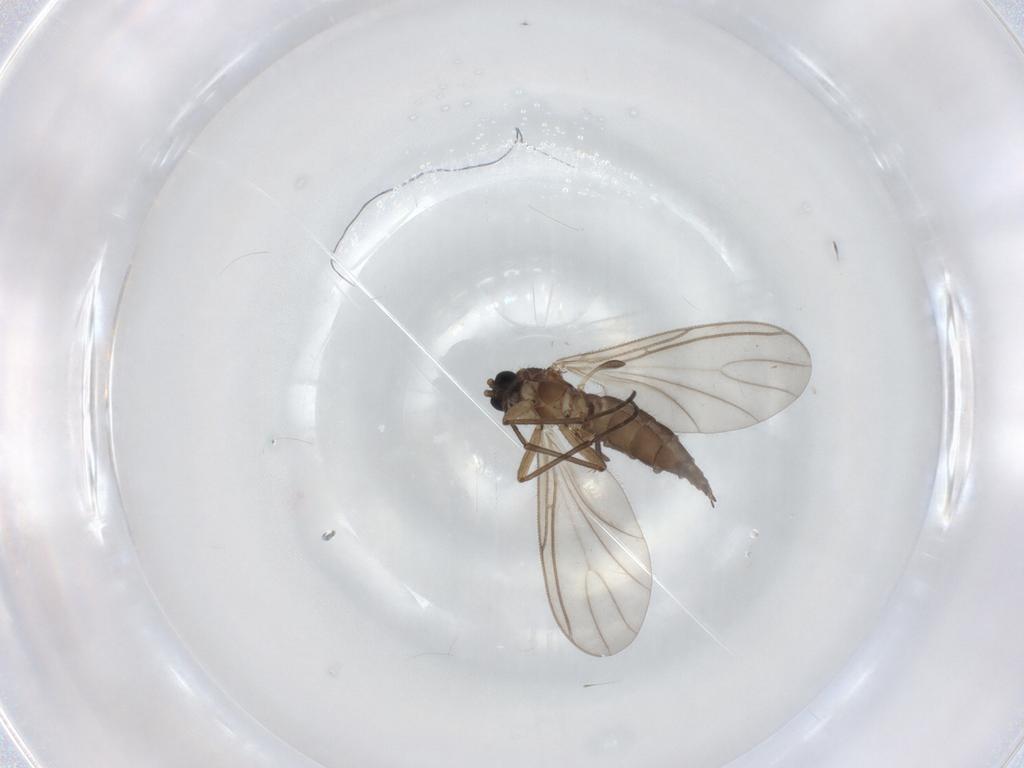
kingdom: Animalia
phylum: Arthropoda
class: Insecta
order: Diptera
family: Sciaridae
